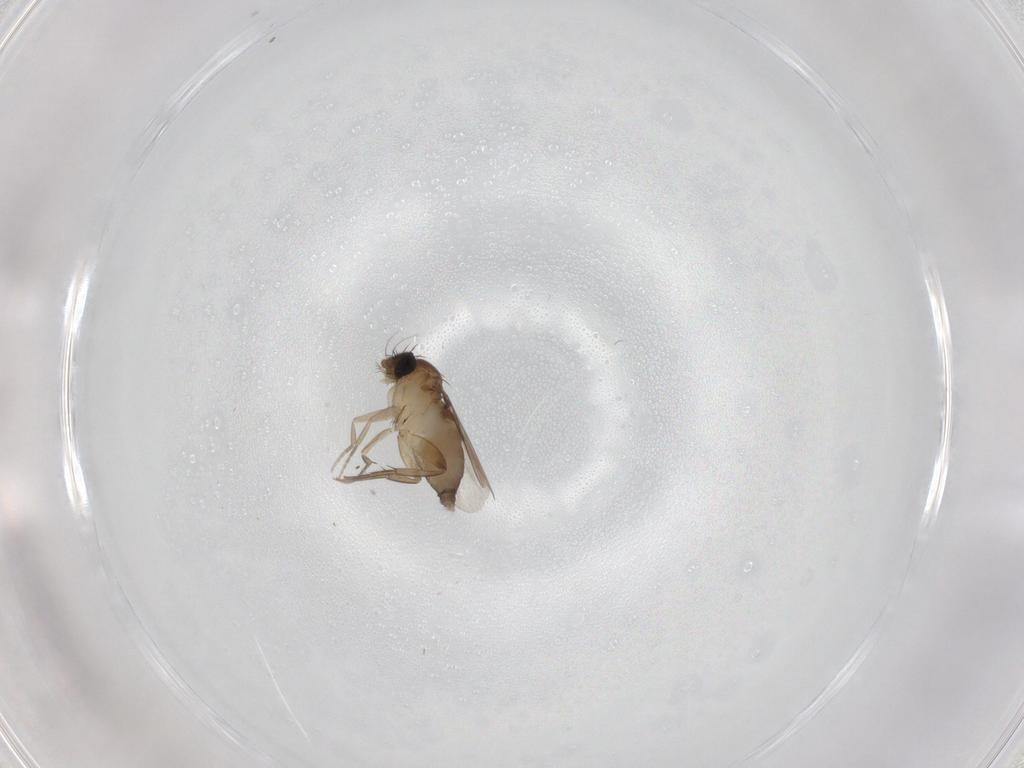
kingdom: Animalia
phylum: Arthropoda
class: Insecta
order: Diptera
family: Phoridae
